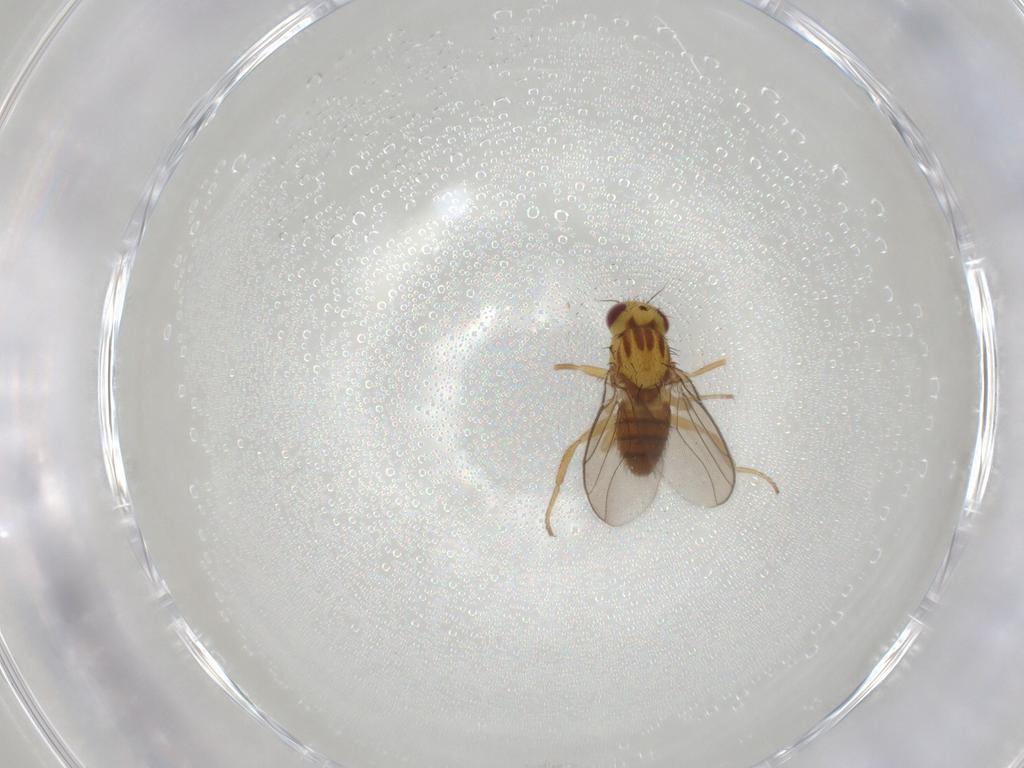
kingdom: Animalia
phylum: Arthropoda
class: Insecta
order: Diptera
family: Chloropidae
